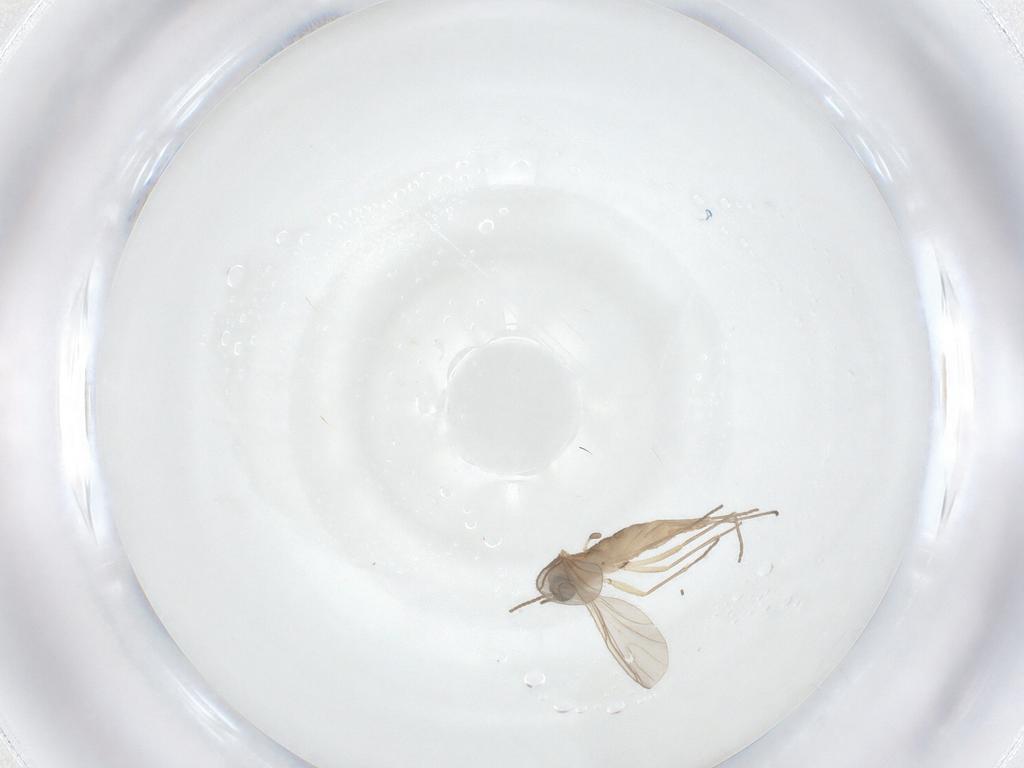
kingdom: Animalia
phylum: Arthropoda
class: Insecta
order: Diptera
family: Sciaridae
